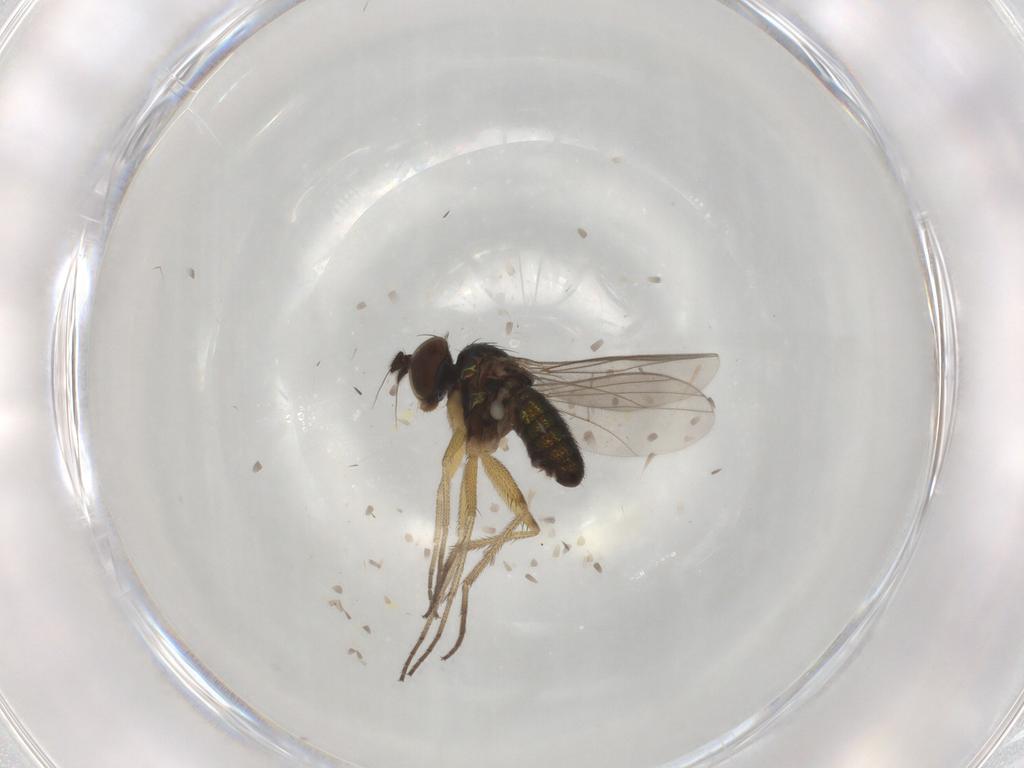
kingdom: Animalia
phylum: Arthropoda
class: Insecta
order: Diptera
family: Dolichopodidae
